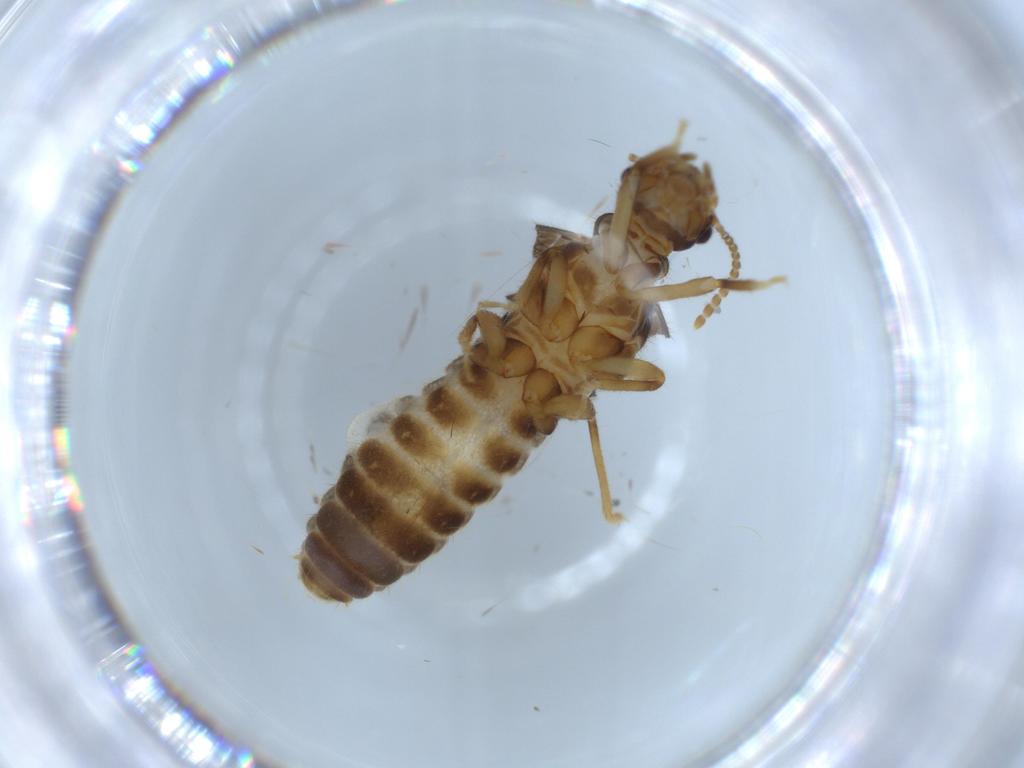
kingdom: Animalia
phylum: Arthropoda
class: Insecta
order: Blattodea
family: Termitidae
